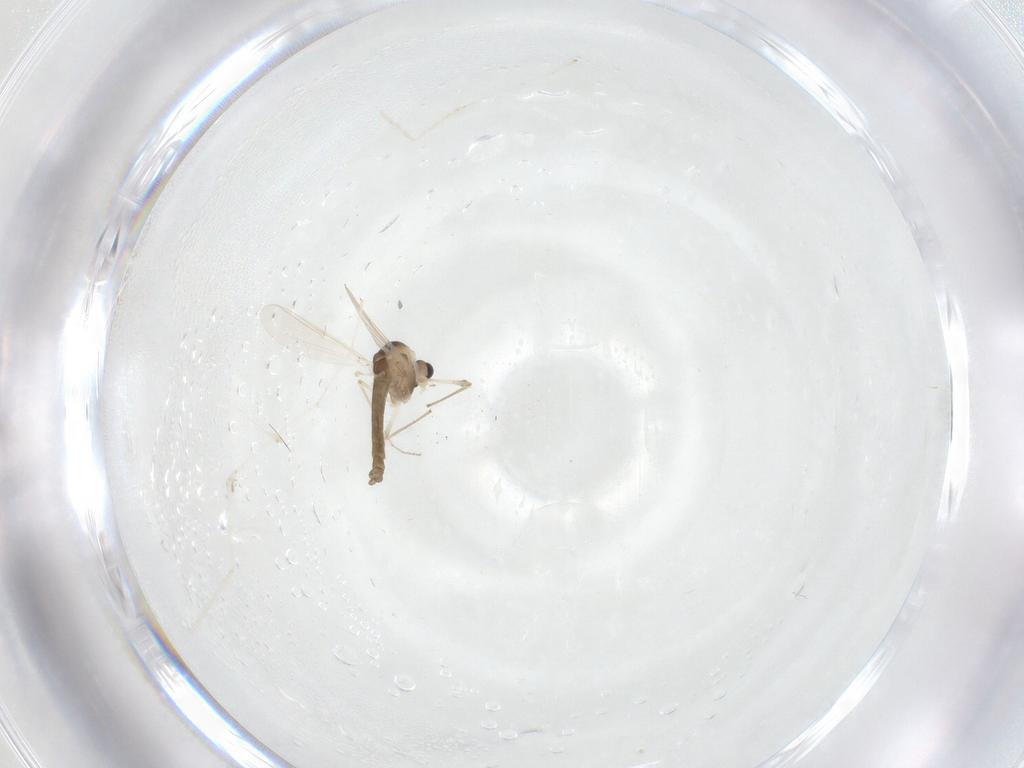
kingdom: Animalia
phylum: Arthropoda
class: Insecta
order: Diptera
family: Cecidomyiidae
